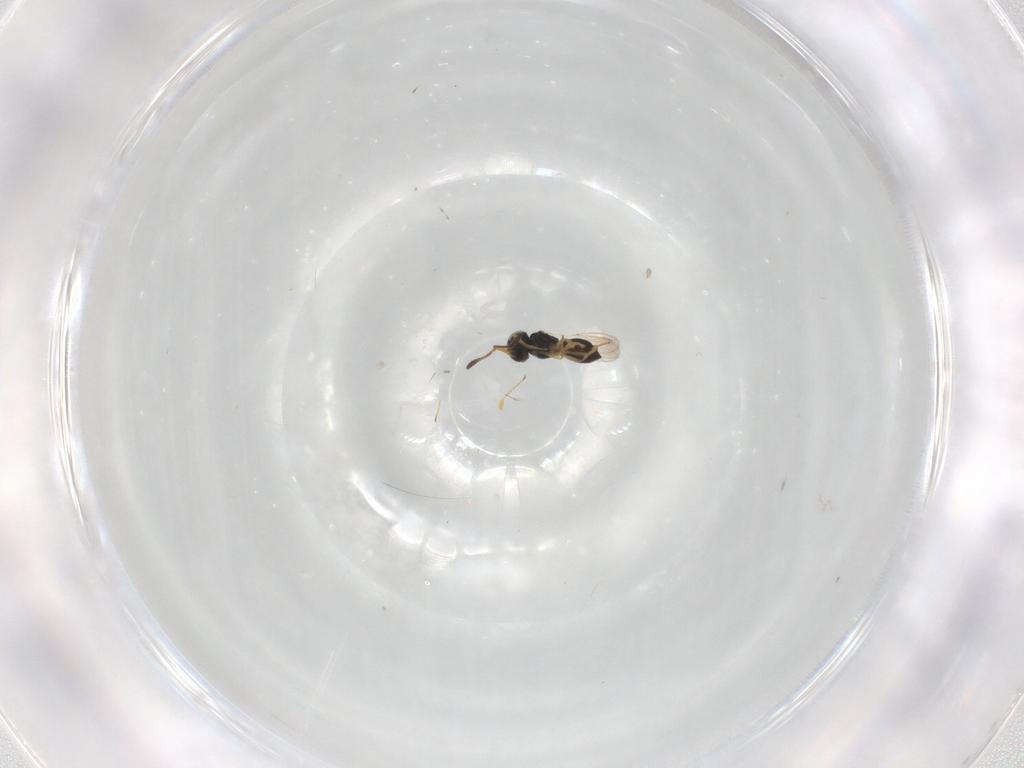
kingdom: Animalia
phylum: Arthropoda
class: Insecta
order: Hymenoptera
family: Scelionidae
